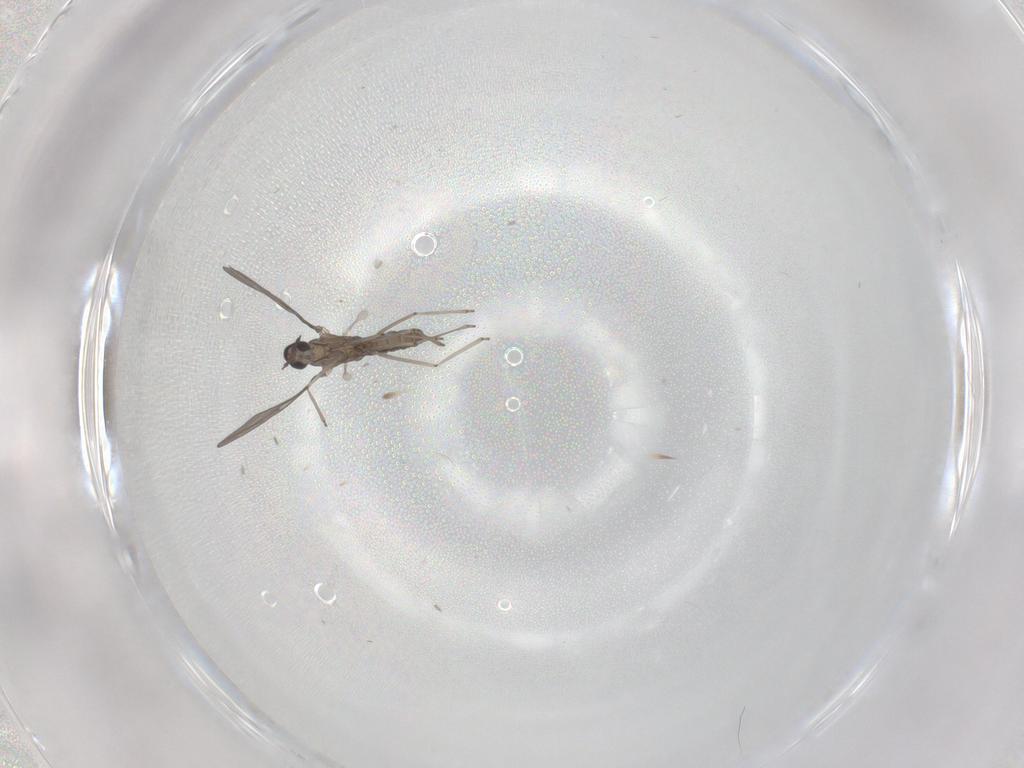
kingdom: Animalia
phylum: Arthropoda
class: Insecta
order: Diptera
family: Cecidomyiidae
